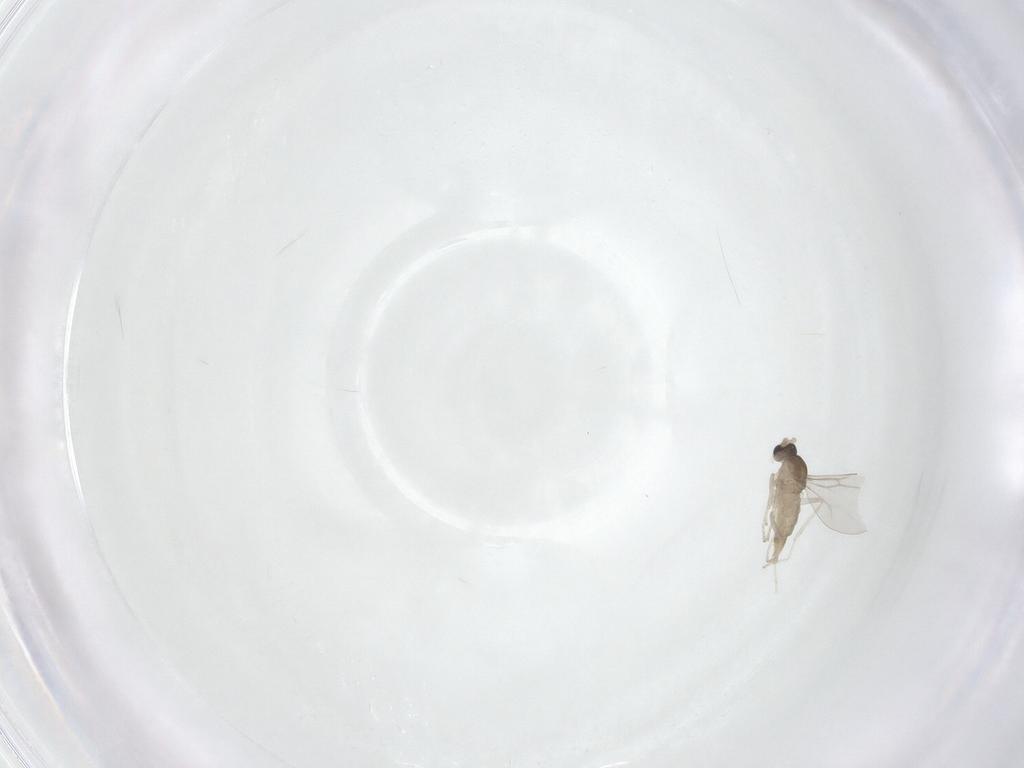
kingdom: Animalia
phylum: Arthropoda
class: Insecta
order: Diptera
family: Cecidomyiidae
